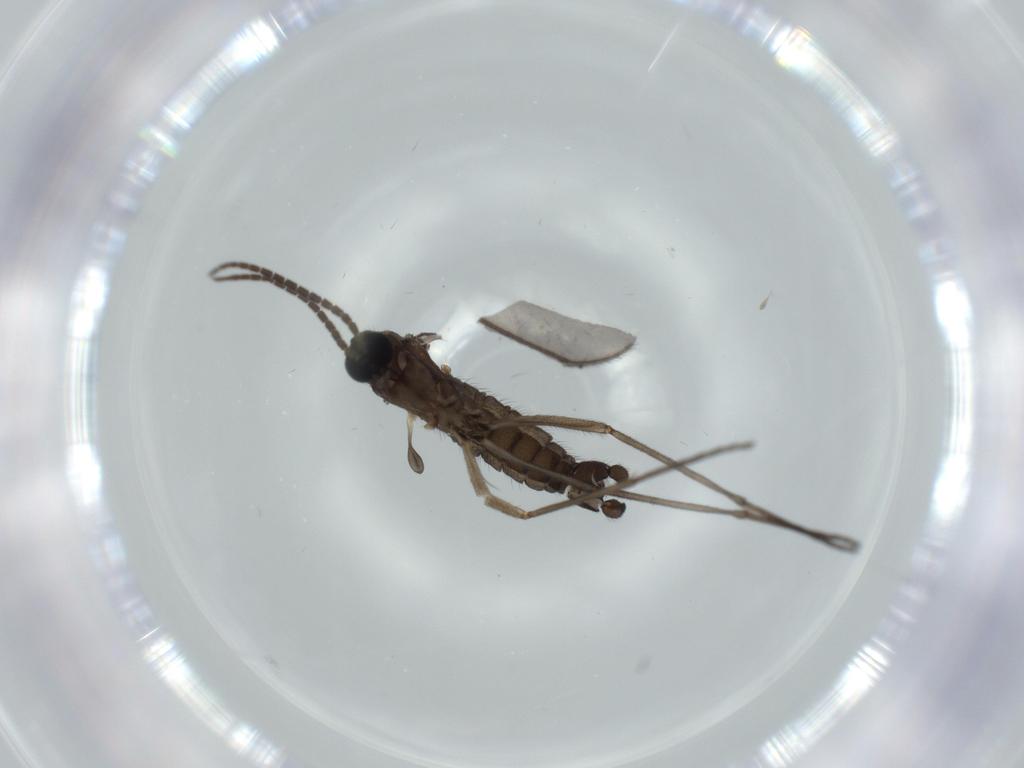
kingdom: Animalia
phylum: Arthropoda
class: Insecta
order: Diptera
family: Sciaridae
